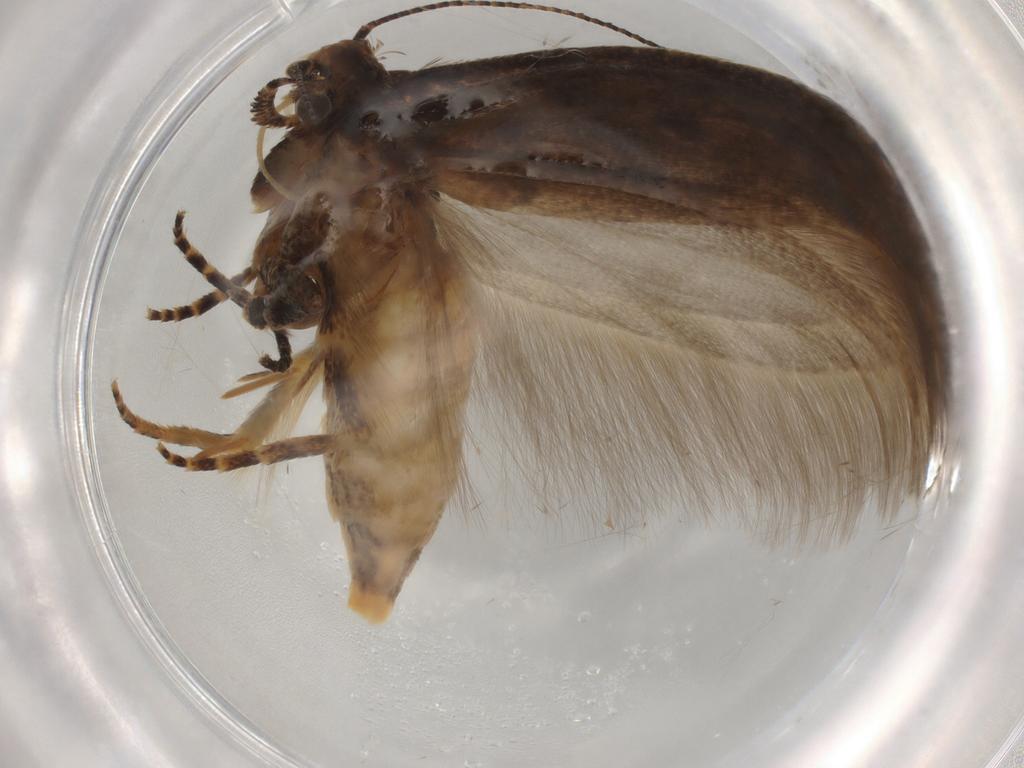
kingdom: Animalia
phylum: Arthropoda
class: Insecta
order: Lepidoptera
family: Gelechiidae
